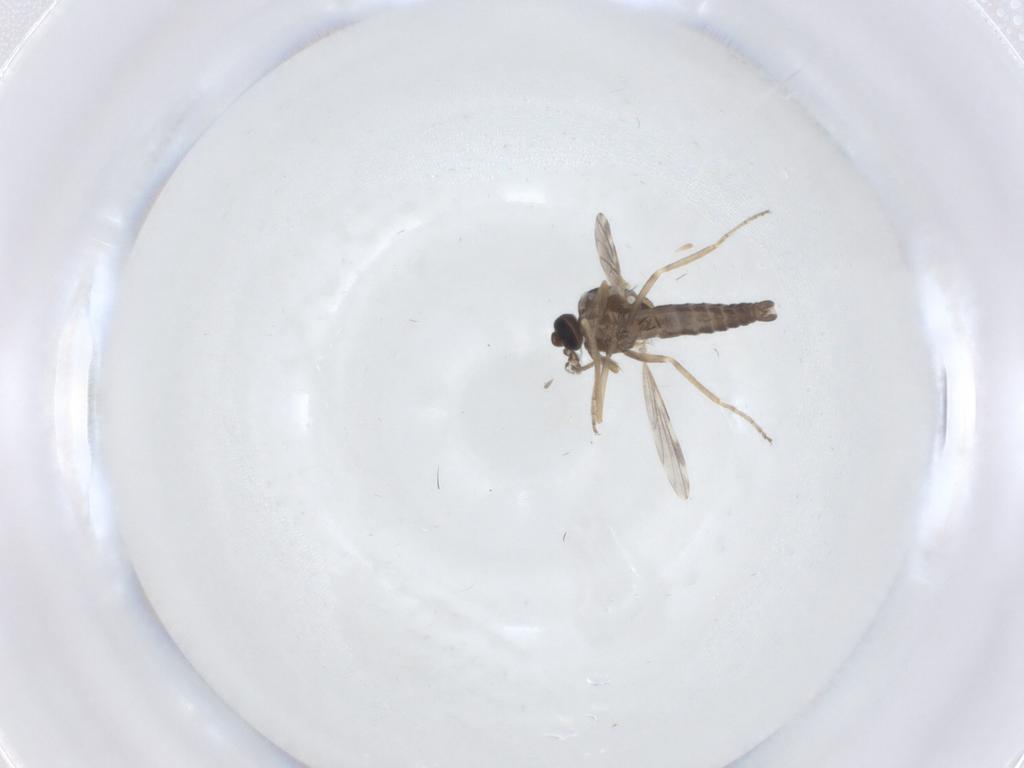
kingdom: Animalia
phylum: Arthropoda
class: Insecta
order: Diptera
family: Ceratopogonidae
